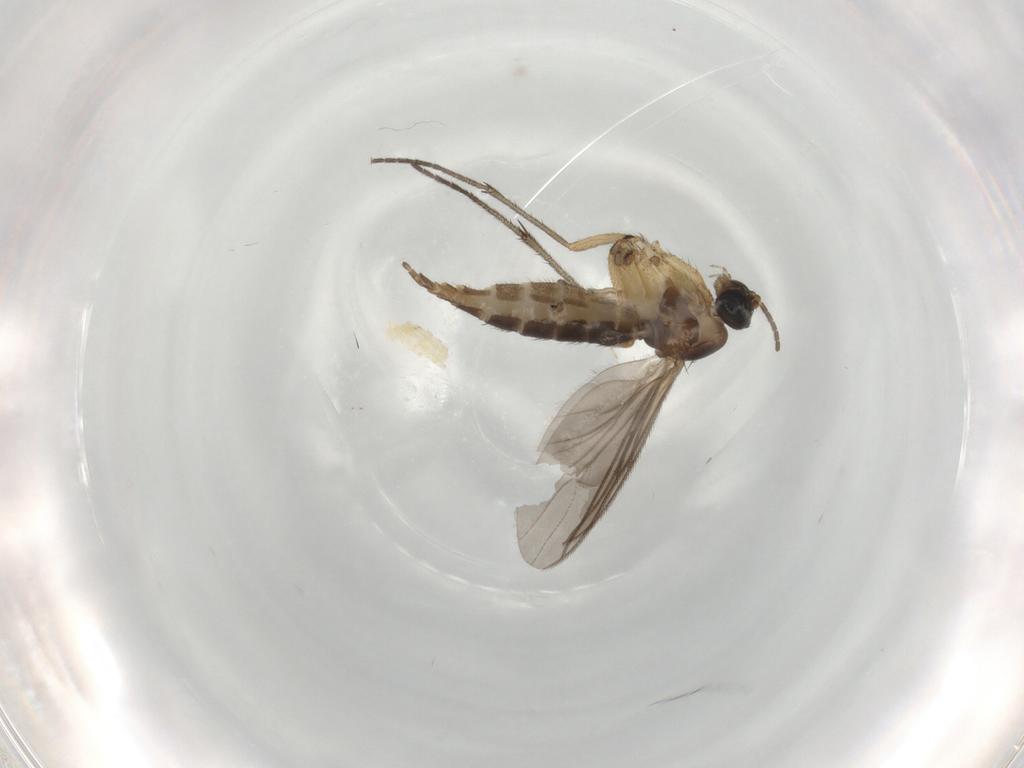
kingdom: Animalia
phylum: Arthropoda
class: Insecta
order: Diptera
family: Sciaridae
